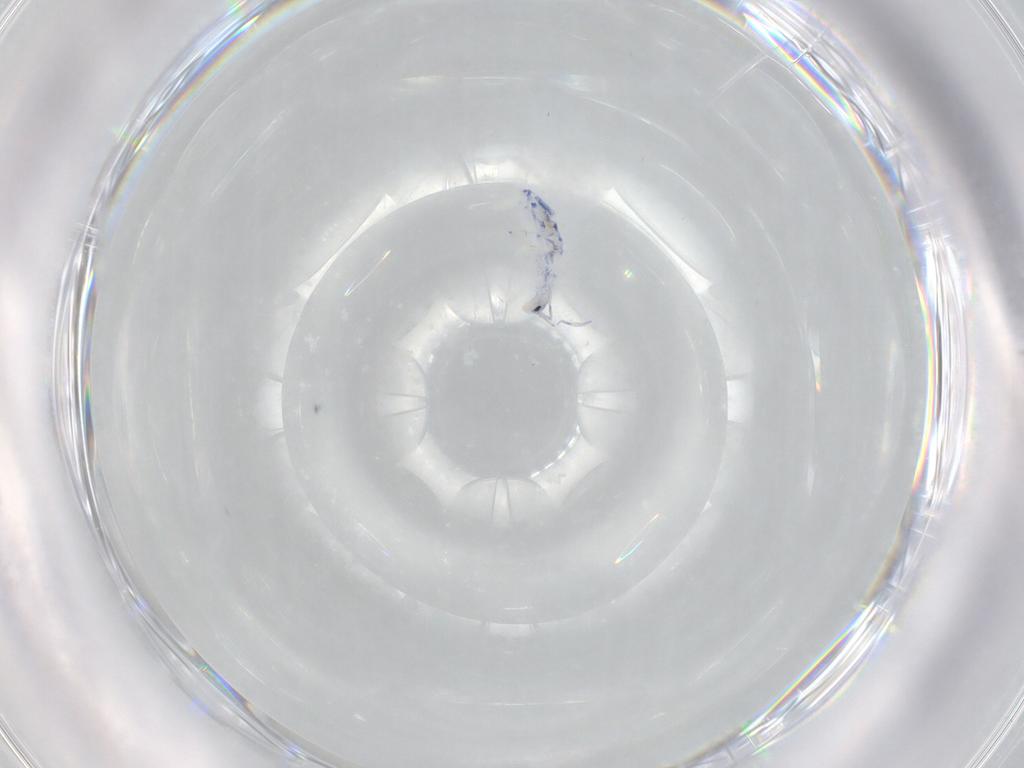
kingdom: Animalia
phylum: Arthropoda
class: Collembola
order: Entomobryomorpha
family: Entomobryidae
